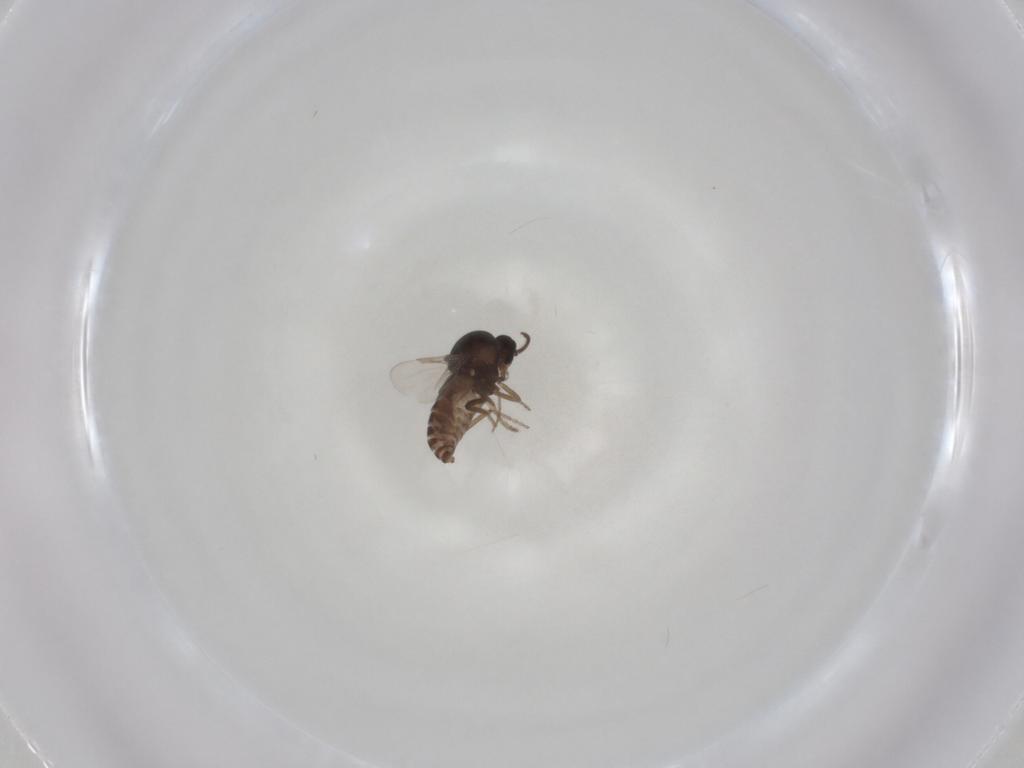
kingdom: Animalia
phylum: Arthropoda
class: Insecta
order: Diptera
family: Ceratopogonidae
